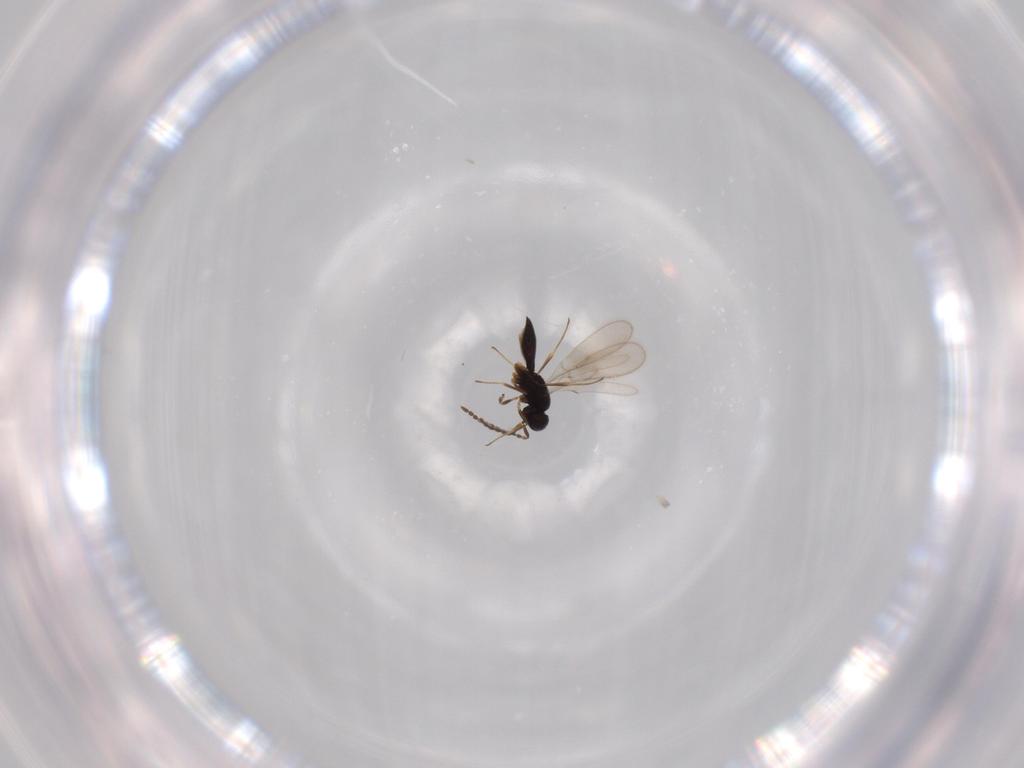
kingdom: Animalia
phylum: Arthropoda
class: Insecta
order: Hymenoptera
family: Scelionidae
